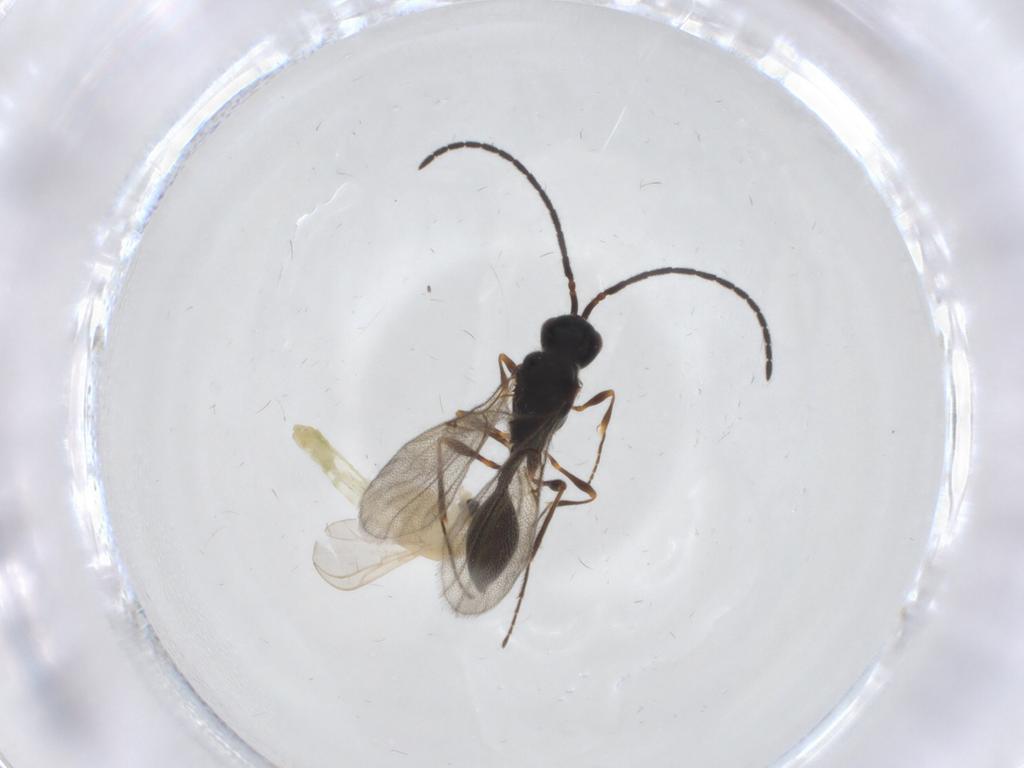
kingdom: Animalia
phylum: Arthropoda
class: Insecta
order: Diptera
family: Chironomidae
